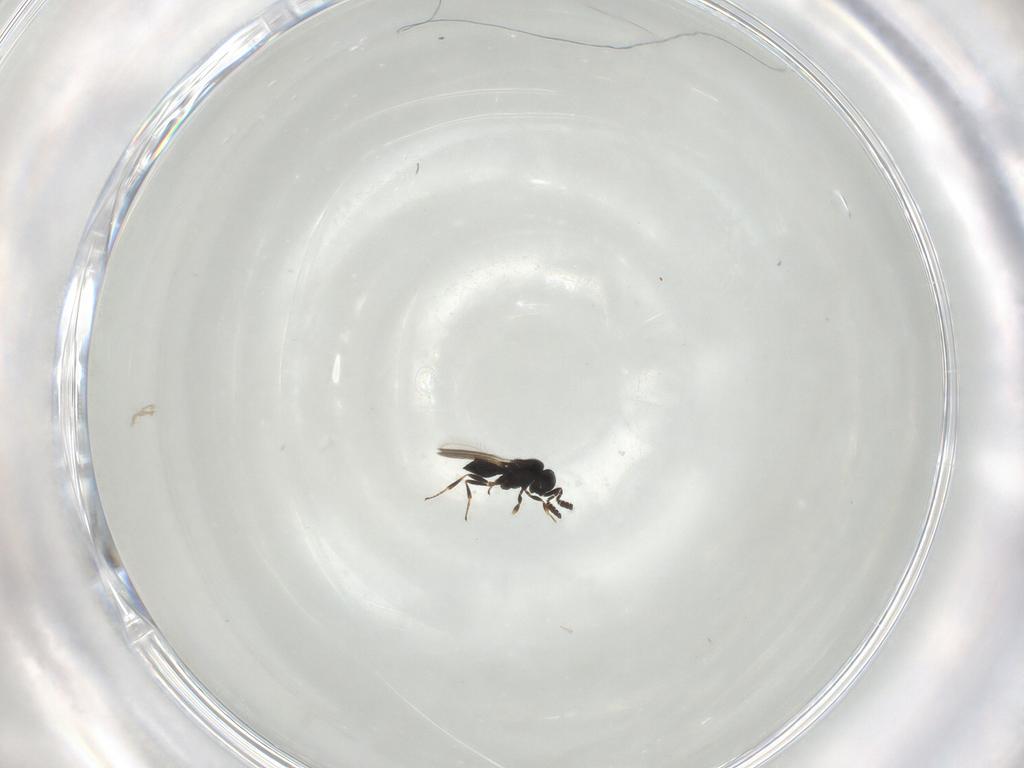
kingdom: Animalia
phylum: Arthropoda
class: Insecta
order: Hymenoptera
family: Scelionidae
